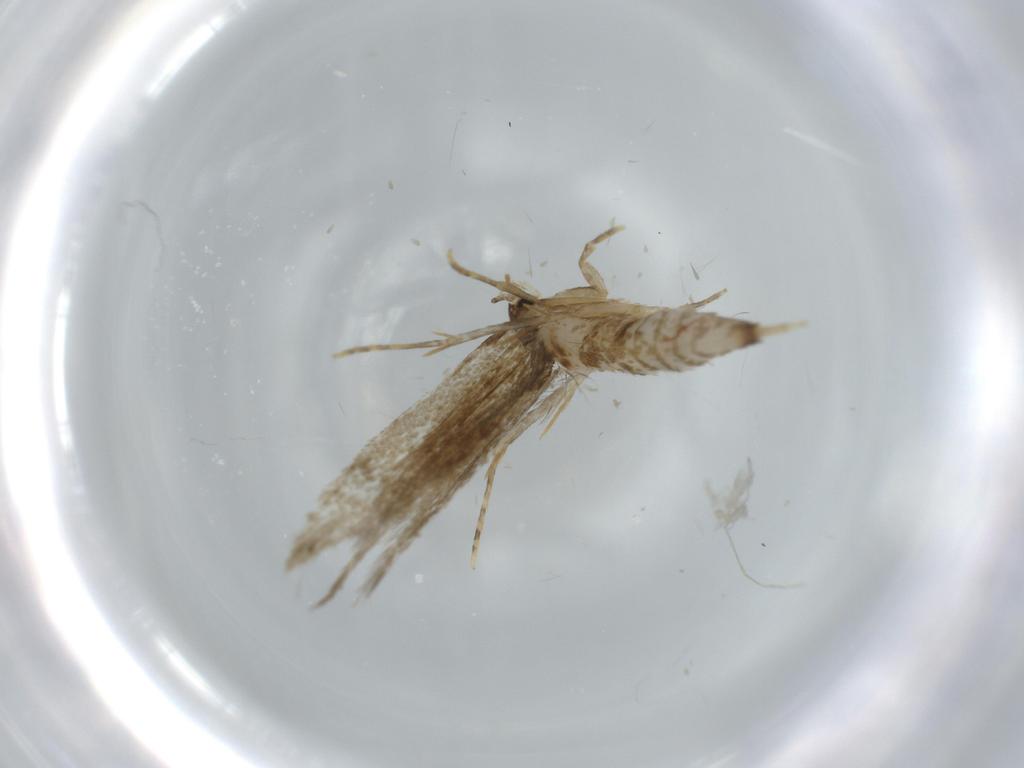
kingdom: Animalia
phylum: Arthropoda
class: Insecta
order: Lepidoptera
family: Tineidae
